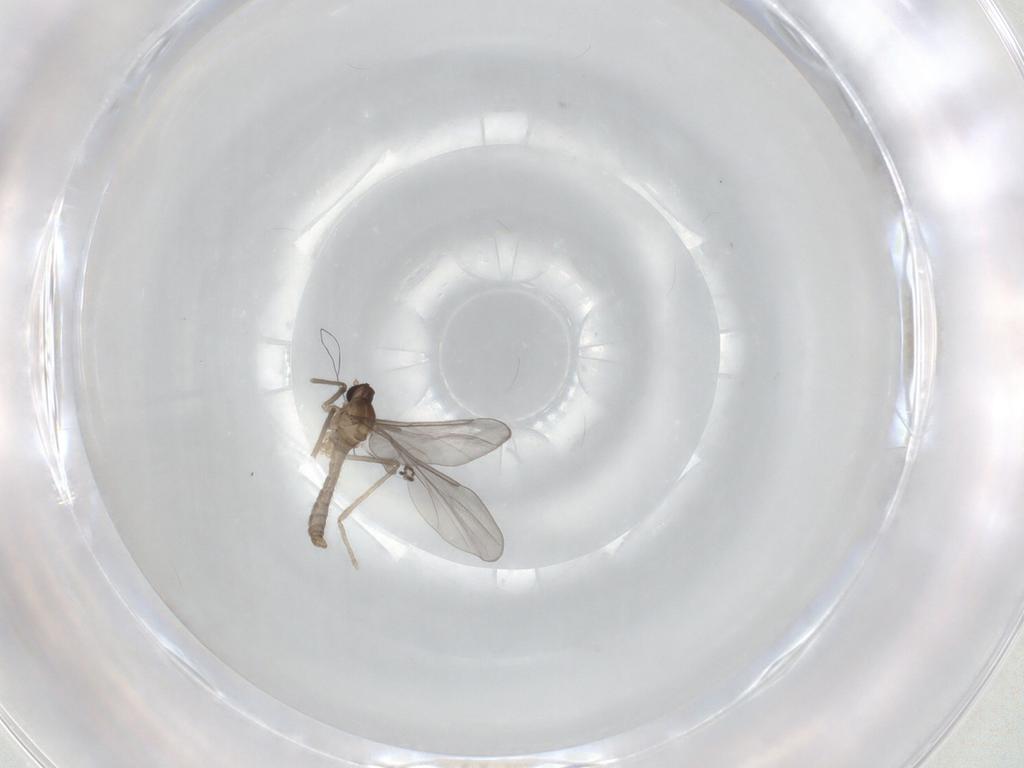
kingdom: Animalia
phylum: Arthropoda
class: Insecta
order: Diptera
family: Cecidomyiidae
